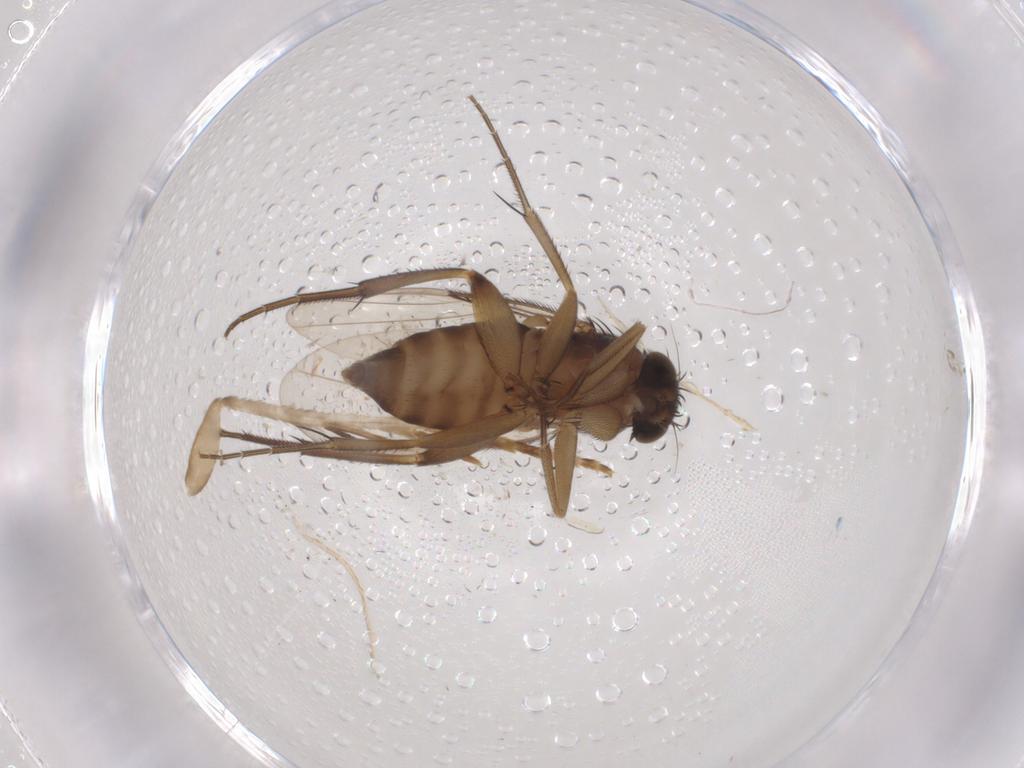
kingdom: Animalia
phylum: Arthropoda
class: Insecta
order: Diptera
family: Phoridae
